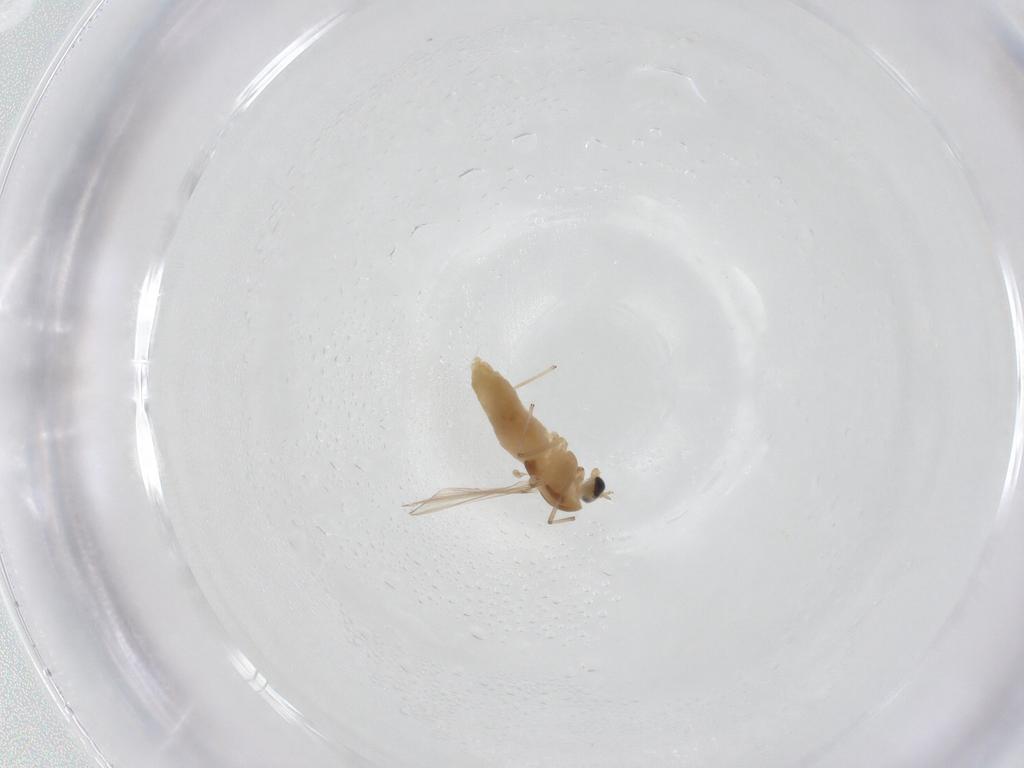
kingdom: Animalia
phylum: Arthropoda
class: Insecta
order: Diptera
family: Chironomidae
